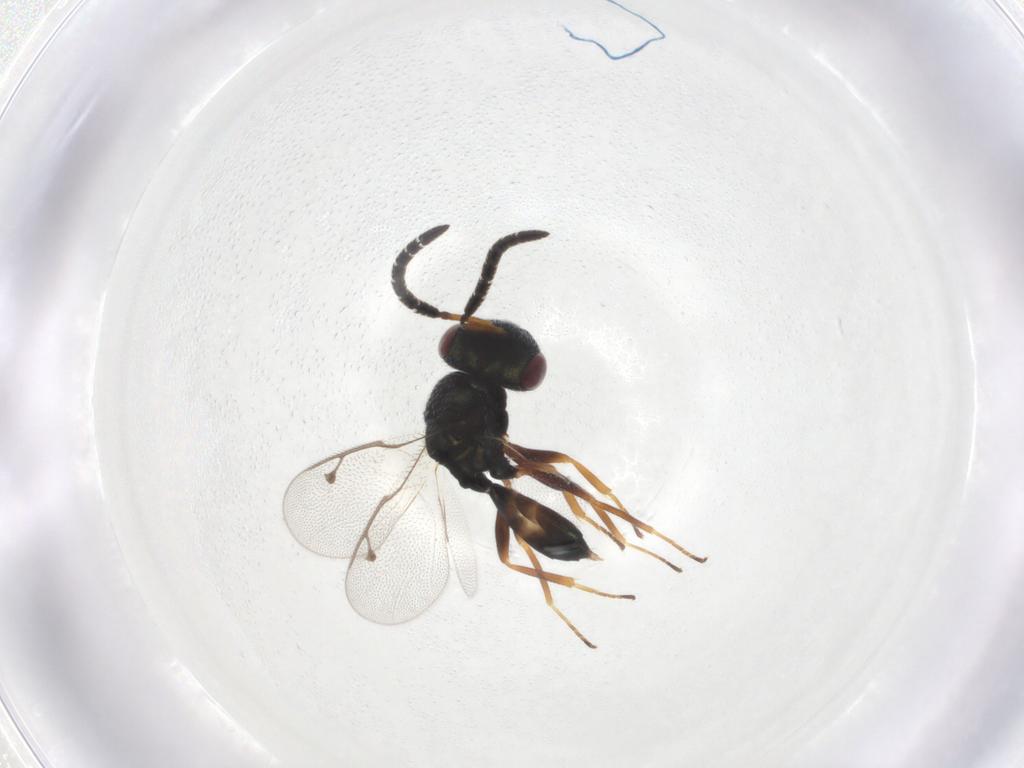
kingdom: Animalia
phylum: Arthropoda
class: Insecta
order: Hymenoptera
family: Pteromalidae
